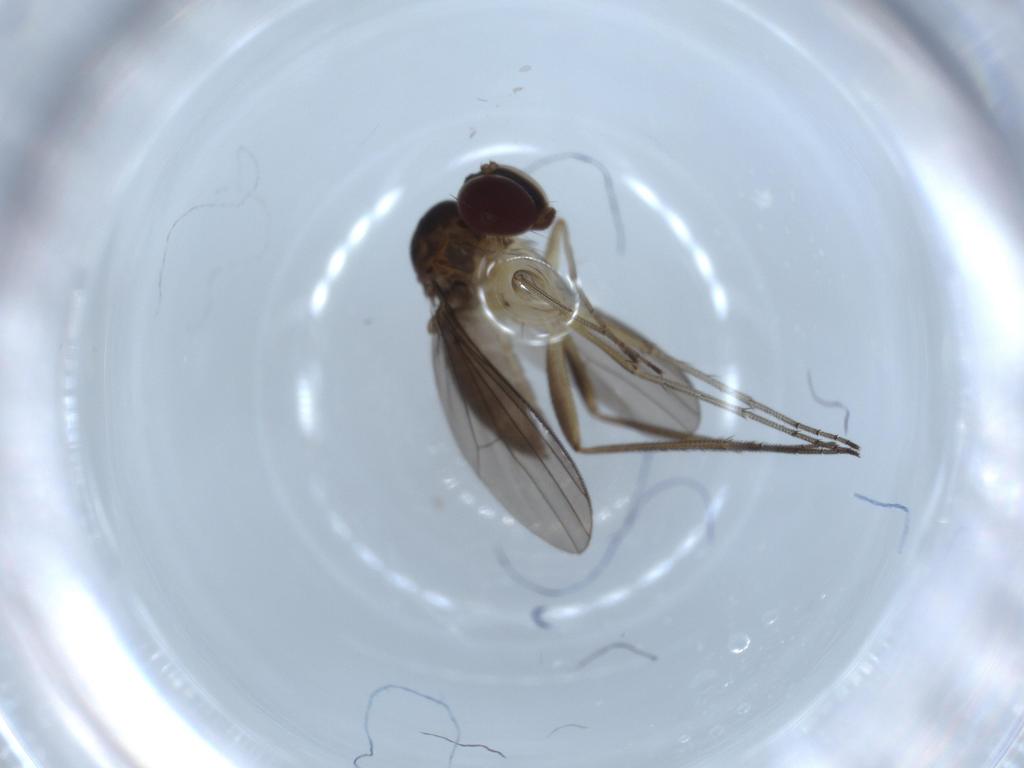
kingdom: Animalia
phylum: Arthropoda
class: Insecta
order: Diptera
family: Dolichopodidae
